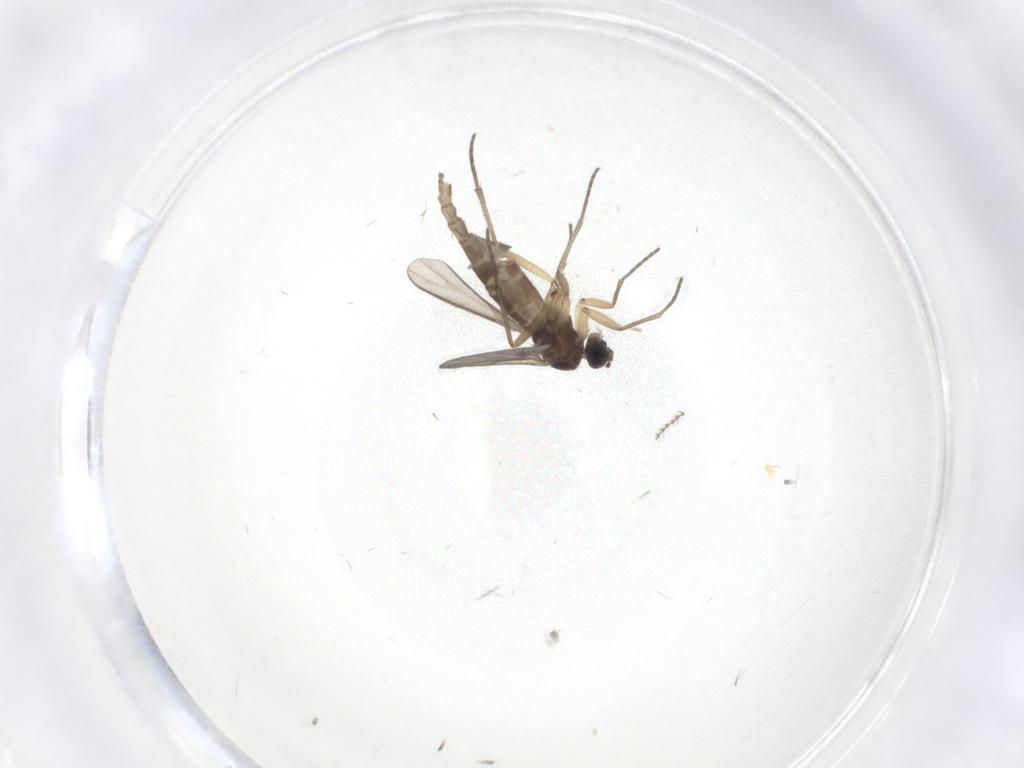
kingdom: Animalia
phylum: Arthropoda
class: Insecta
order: Diptera
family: Sciaridae
